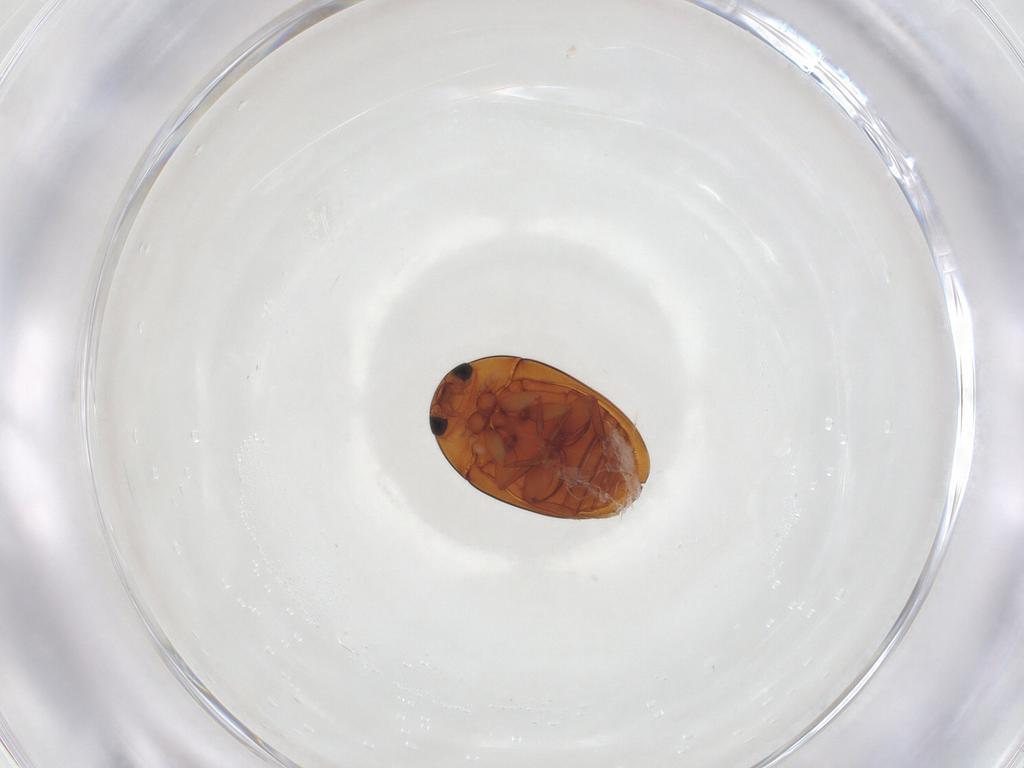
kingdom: Animalia
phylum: Arthropoda
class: Insecta
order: Coleoptera
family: Phalacridae
